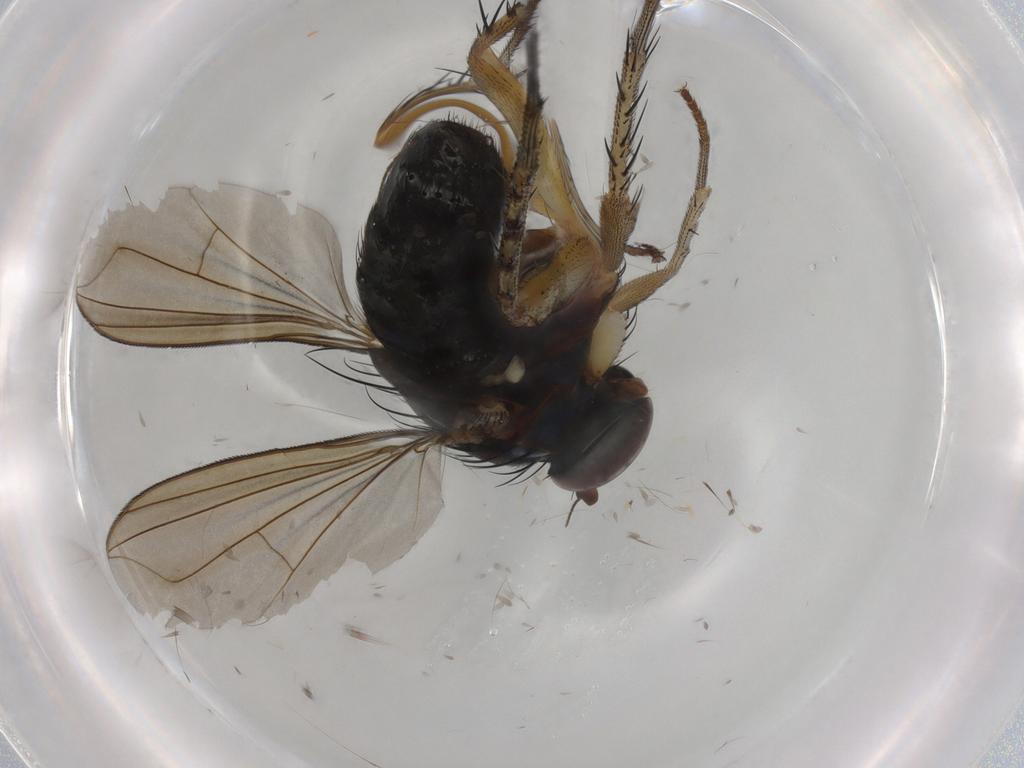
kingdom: Animalia
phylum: Arthropoda
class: Insecta
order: Diptera
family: Dolichopodidae
